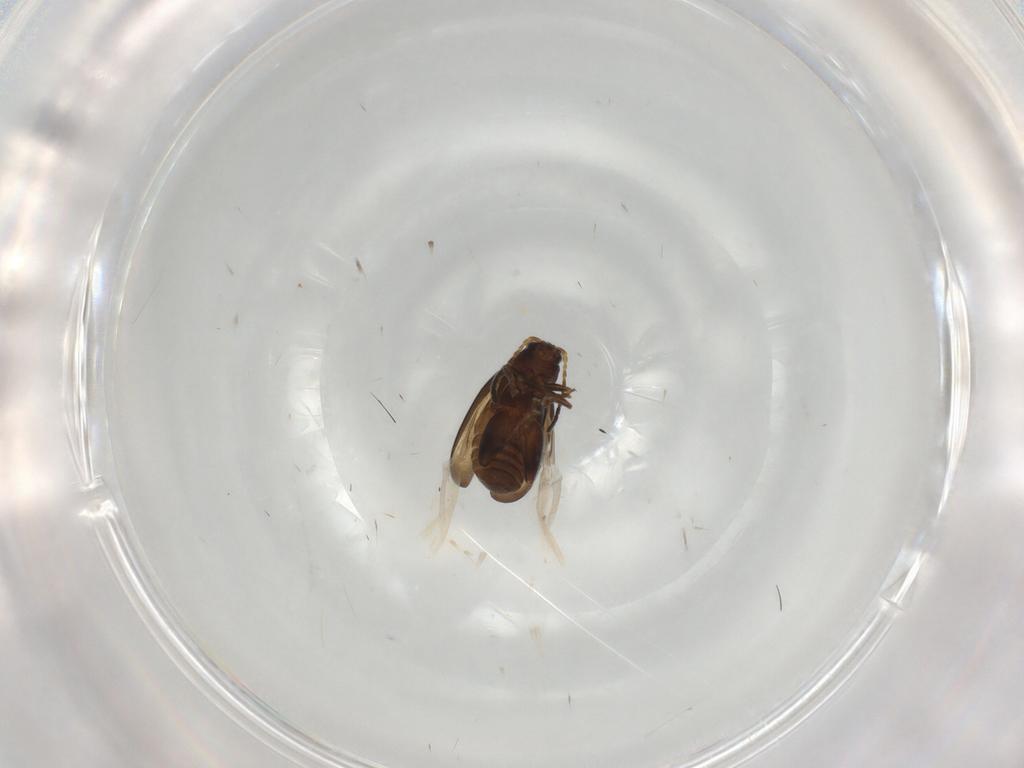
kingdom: Animalia
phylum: Arthropoda
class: Insecta
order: Coleoptera
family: Chrysomelidae
